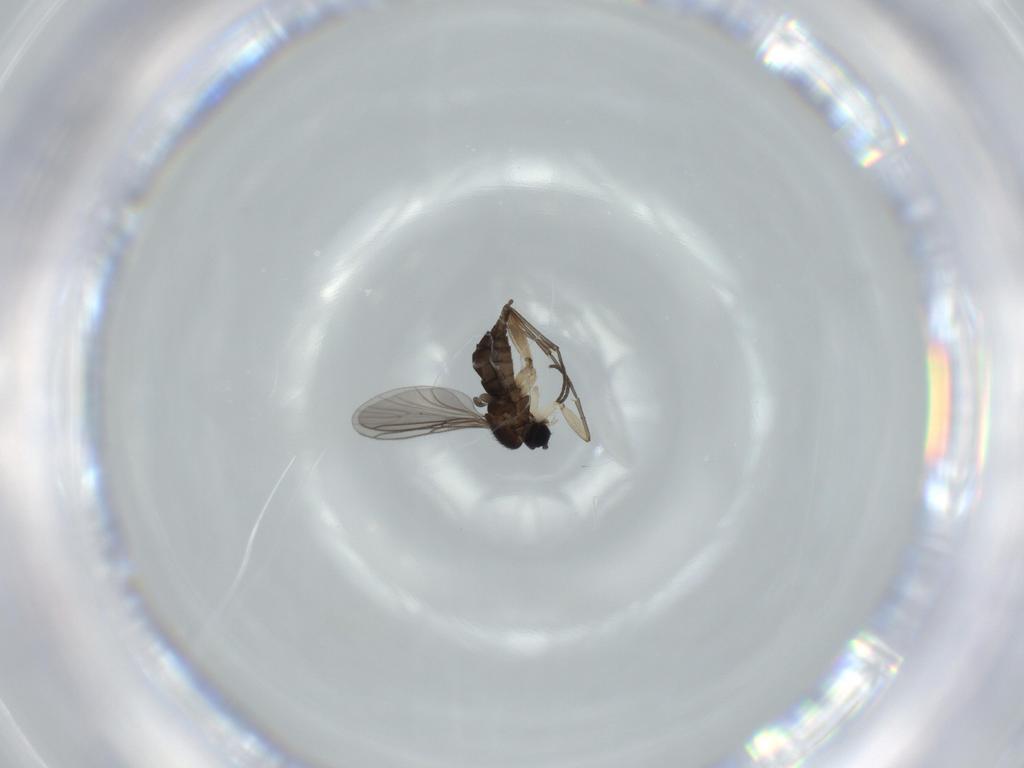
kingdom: Animalia
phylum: Arthropoda
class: Insecta
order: Diptera
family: Sciaridae
